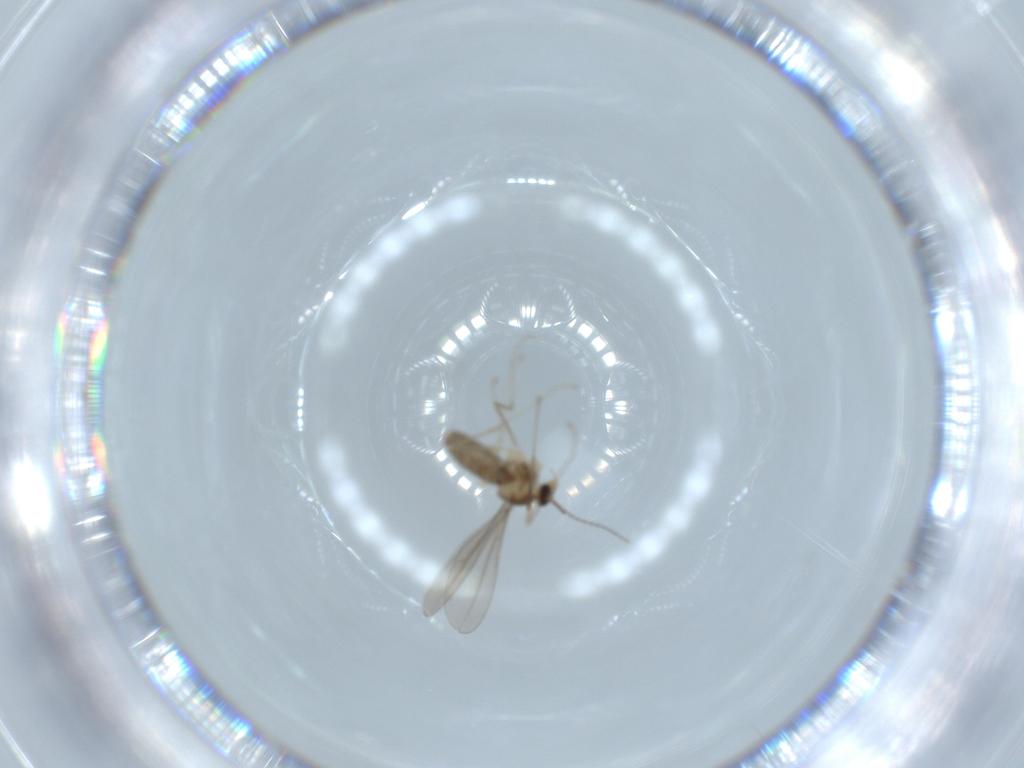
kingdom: Animalia
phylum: Arthropoda
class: Insecta
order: Diptera
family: Cecidomyiidae
